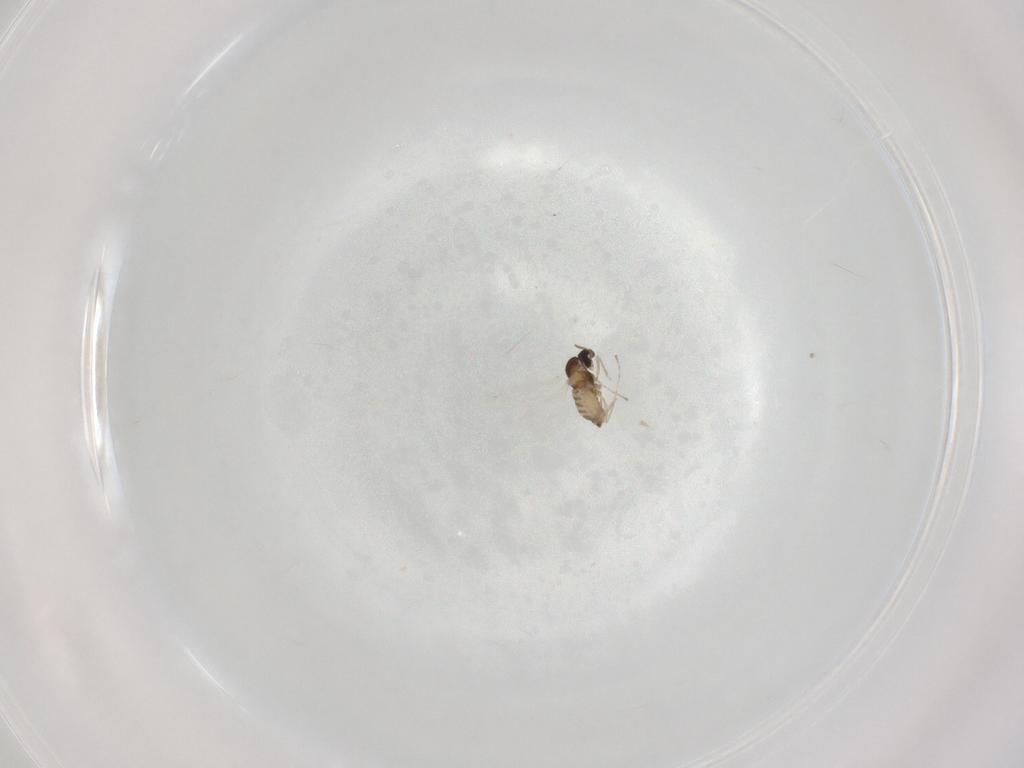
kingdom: Animalia
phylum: Arthropoda
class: Insecta
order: Diptera
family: Cecidomyiidae
